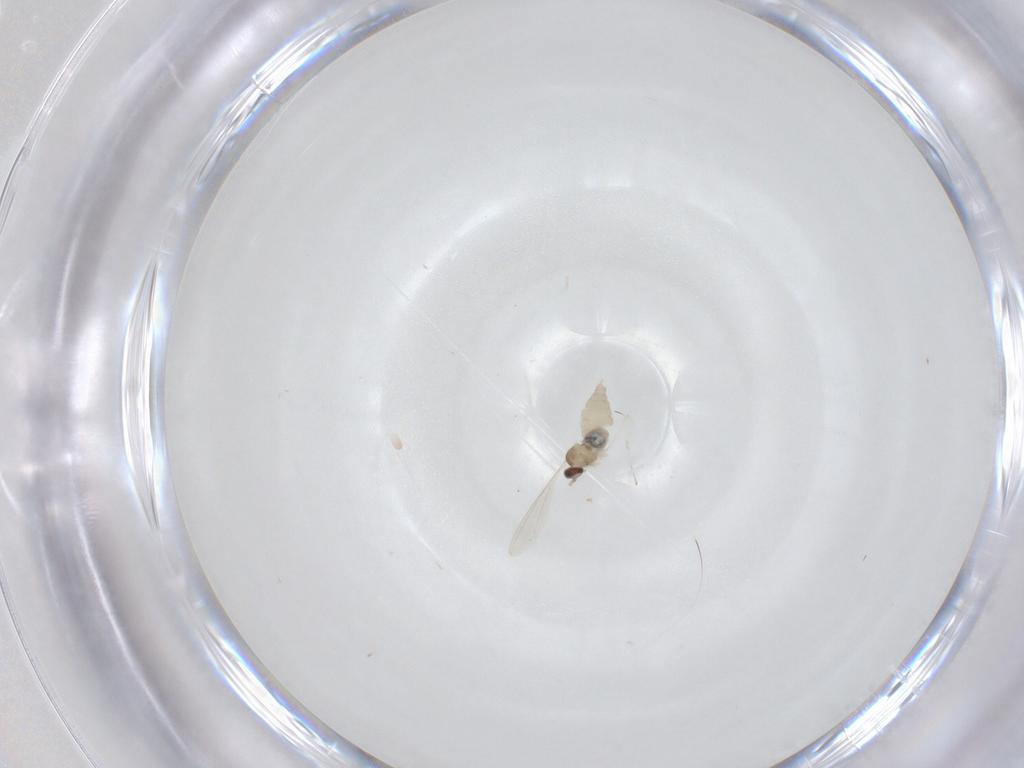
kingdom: Animalia
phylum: Arthropoda
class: Insecta
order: Diptera
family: Cecidomyiidae
